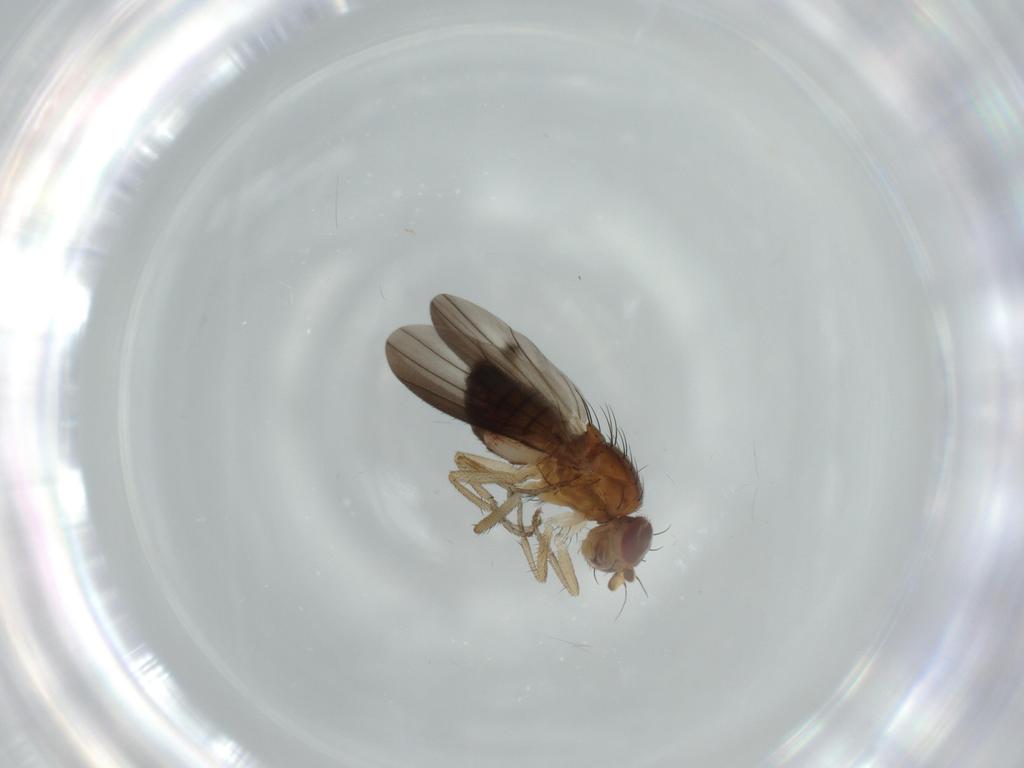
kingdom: Animalia
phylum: Arthropoda
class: Insecta
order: Diptera
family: Heleomyzidae
